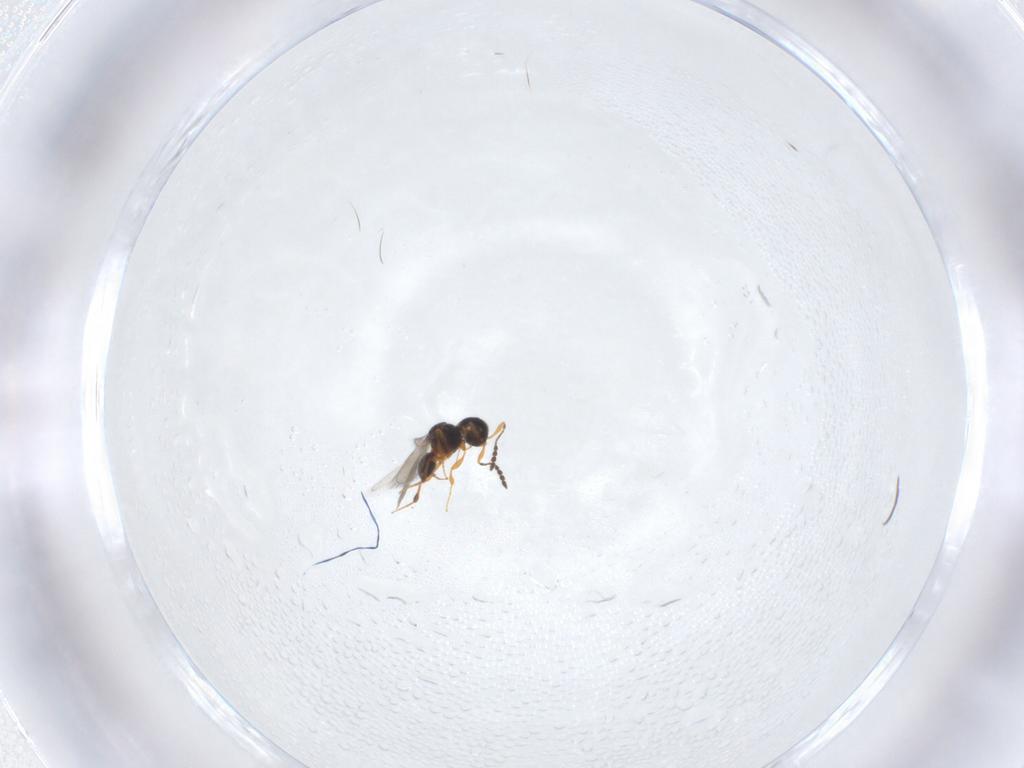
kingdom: Animalia
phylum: Arthropoda
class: Insecta
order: Hymenoptera
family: Platygastridae
